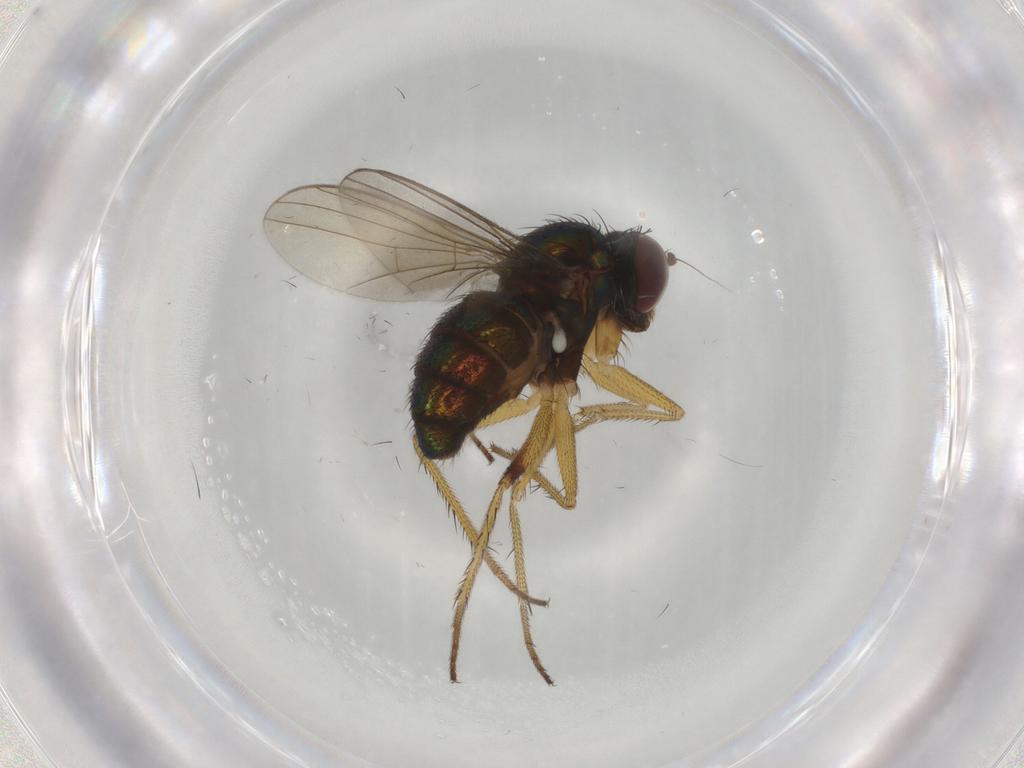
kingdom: Animalia
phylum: Arthropoda
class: Insecta
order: Diptera
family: Dolichopodidae
